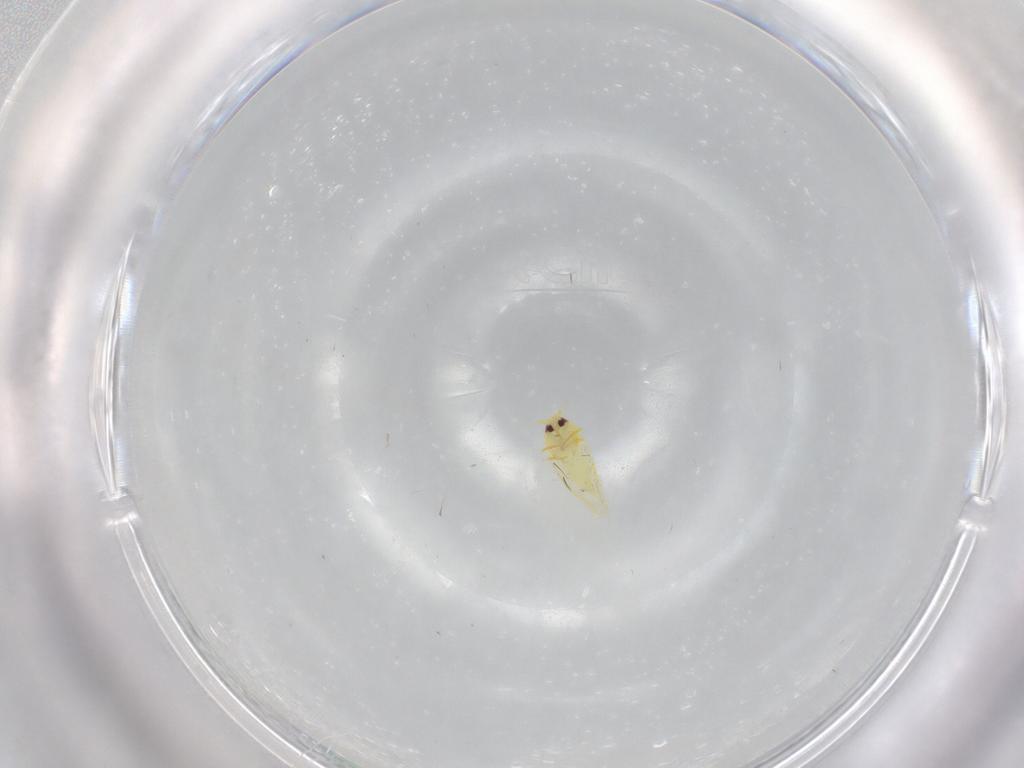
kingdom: Animalia
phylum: Arthropoda
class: Insecta
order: Hemiptera
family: Aleyrodidae
